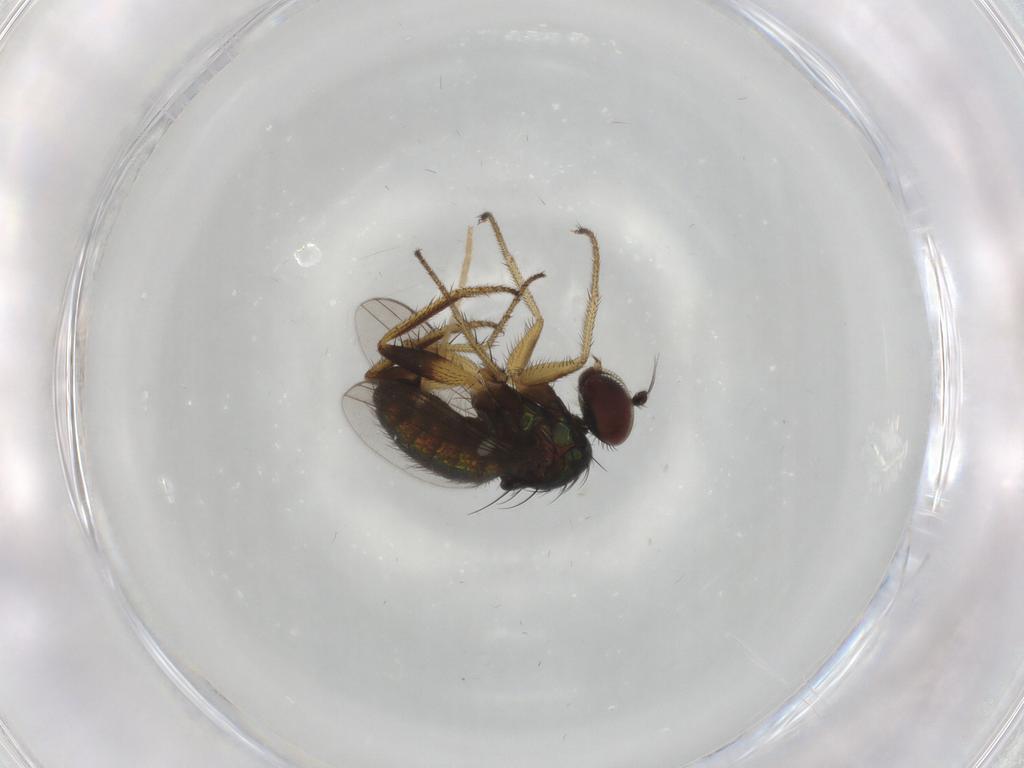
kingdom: Animalia
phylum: Arthropoda
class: Insecta
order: Diptera
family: Dolichopodidae
